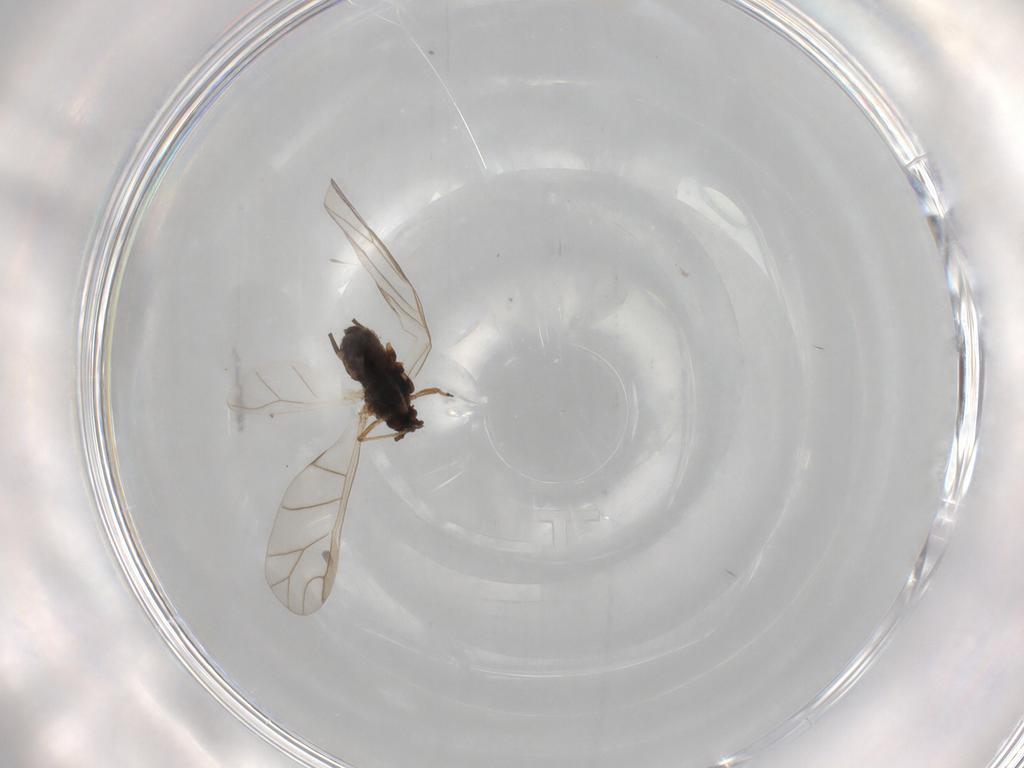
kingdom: Animalia
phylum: Arthropoda
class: Insecta
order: Hemiptera
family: Aphididae
